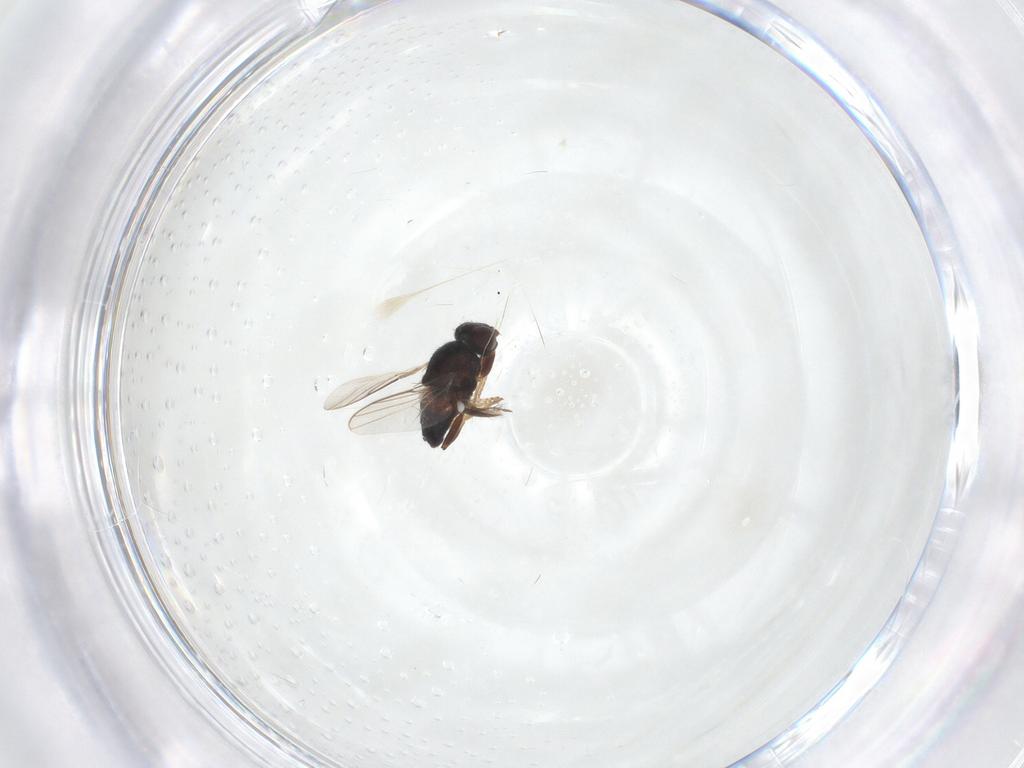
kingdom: Animalia
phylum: Arthropoda
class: Insecta
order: Diptera
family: Chloropidae
